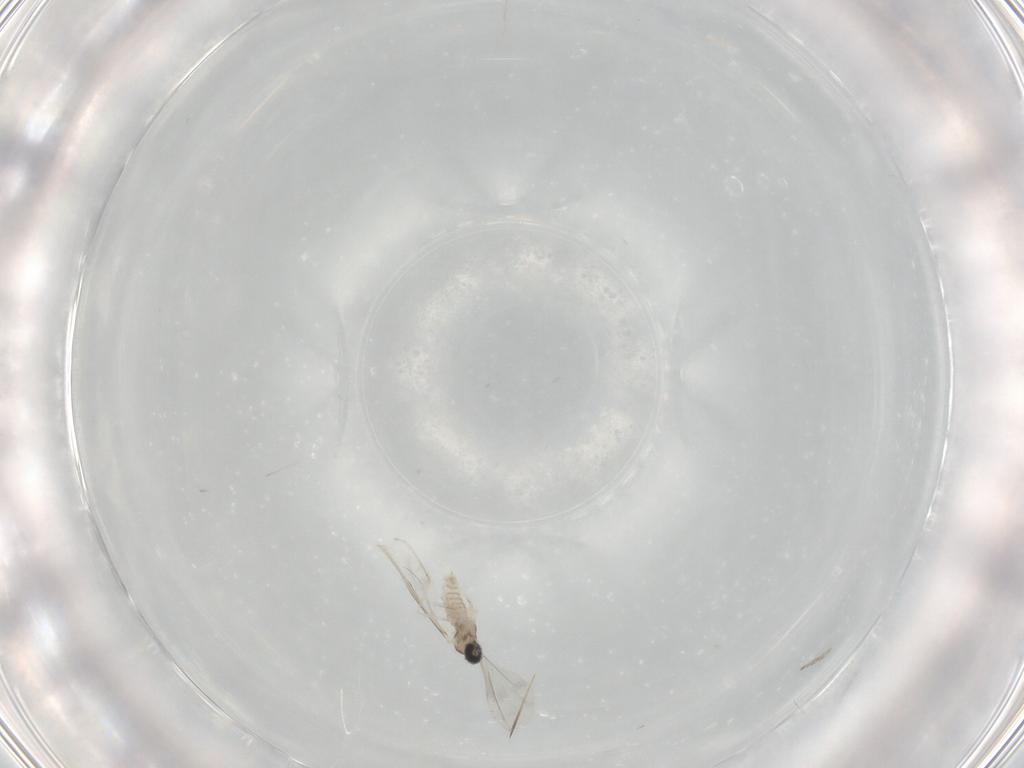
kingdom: Animalia
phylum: Arthropoda
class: Insecta
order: Diptera
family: Cecidomyiidae
